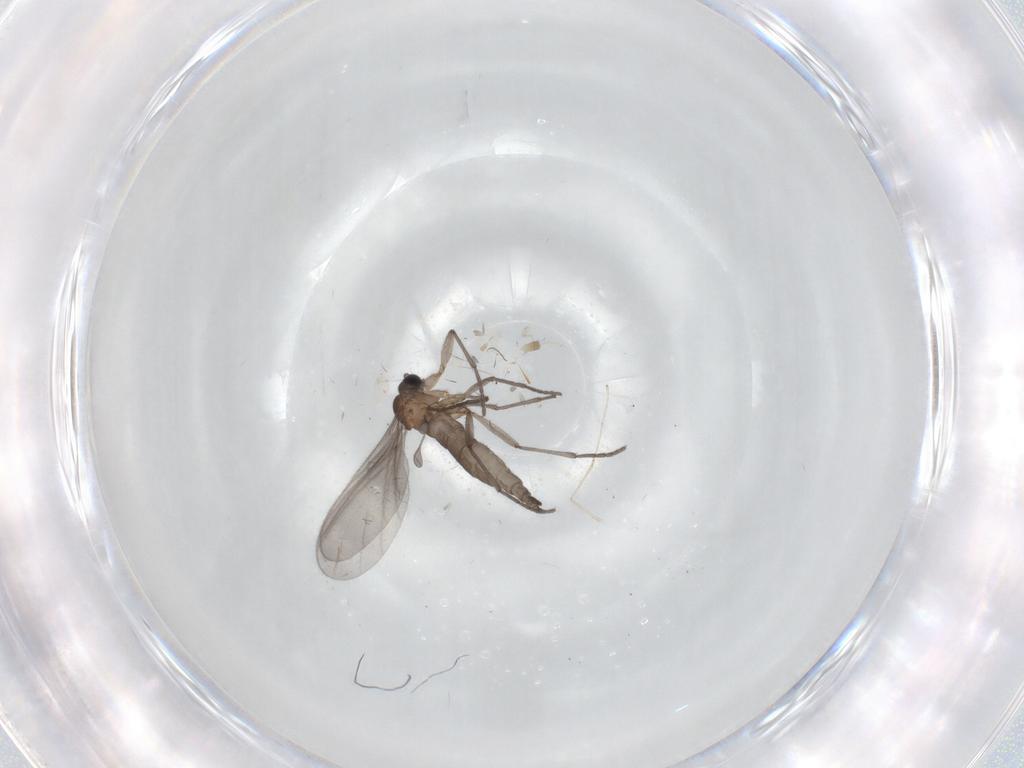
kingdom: Animalia
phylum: Arthropoda
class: Insecta
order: Diptera
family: Sciaridae
